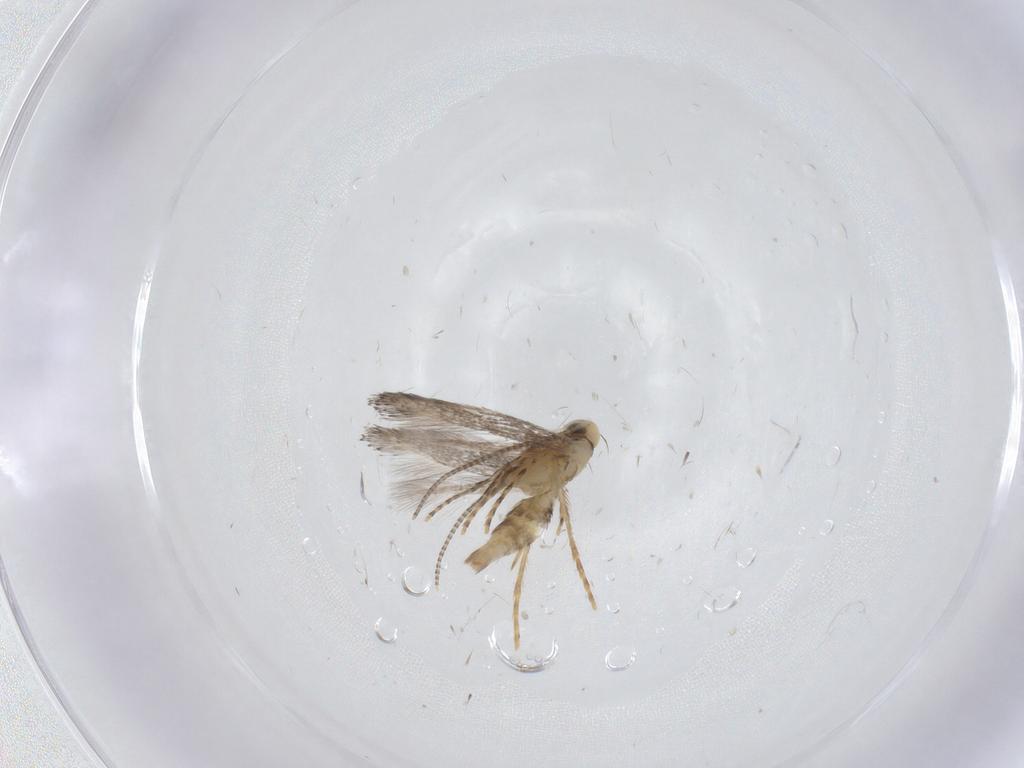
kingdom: Animalia
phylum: Arthropoda
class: Insecta
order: Lepidoptera
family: Gracillariidae
